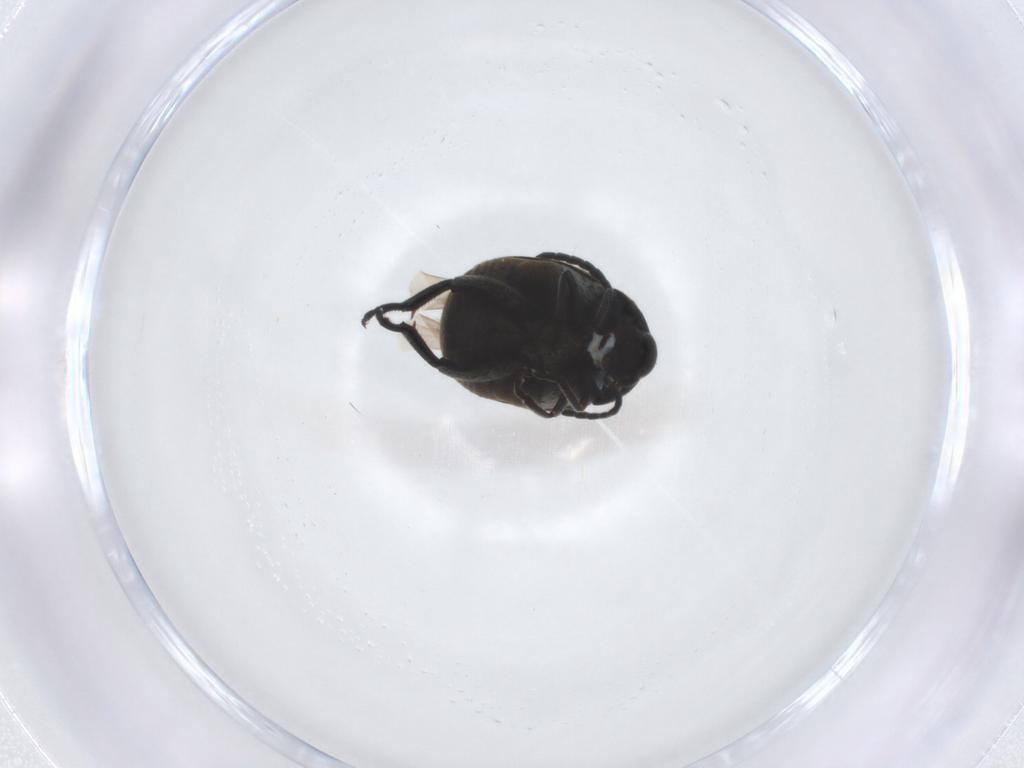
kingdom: Animalia
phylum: Arthropoda
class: Insecta
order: Coleoptera
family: Chrysomelidae
